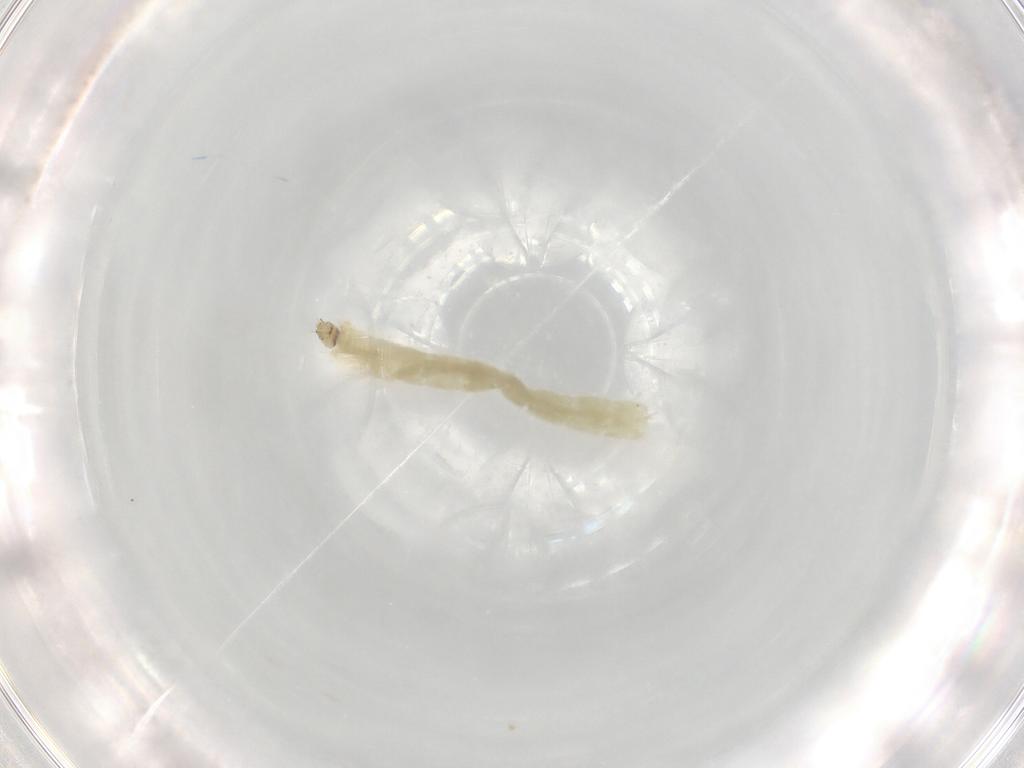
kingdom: Animalia
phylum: Arthropoda
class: Insecta
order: Diptera
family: Chironomidae
